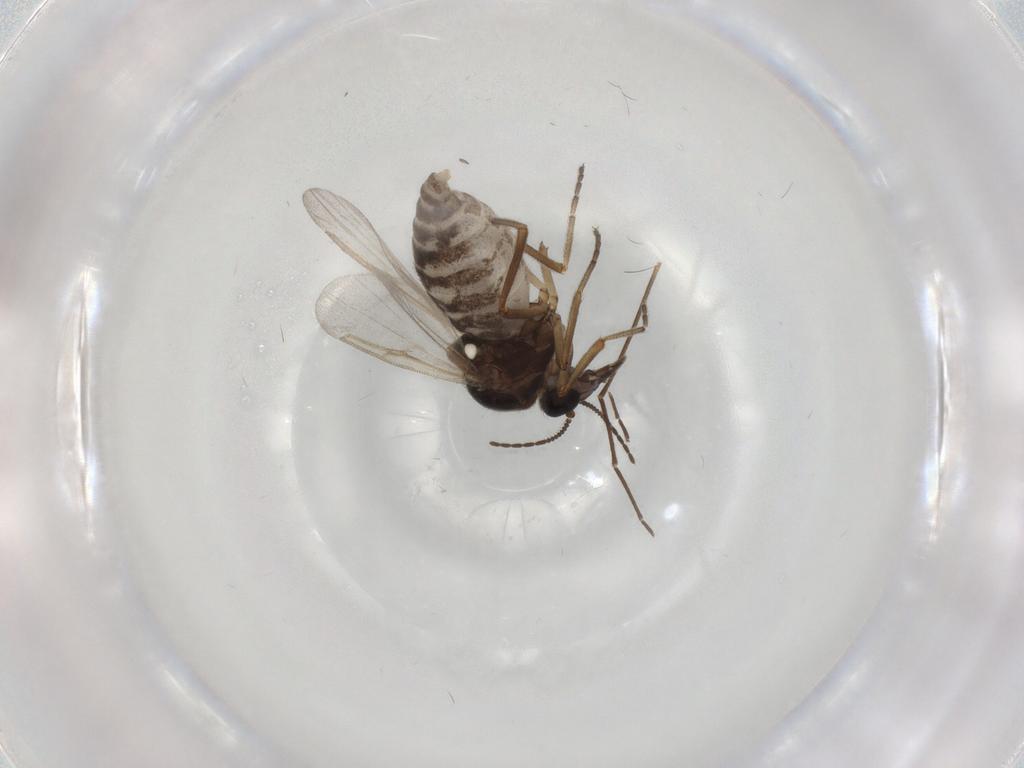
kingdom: Animalia
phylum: Arthropoda
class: Insecta
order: Diptera
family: Ceratopogonidae
